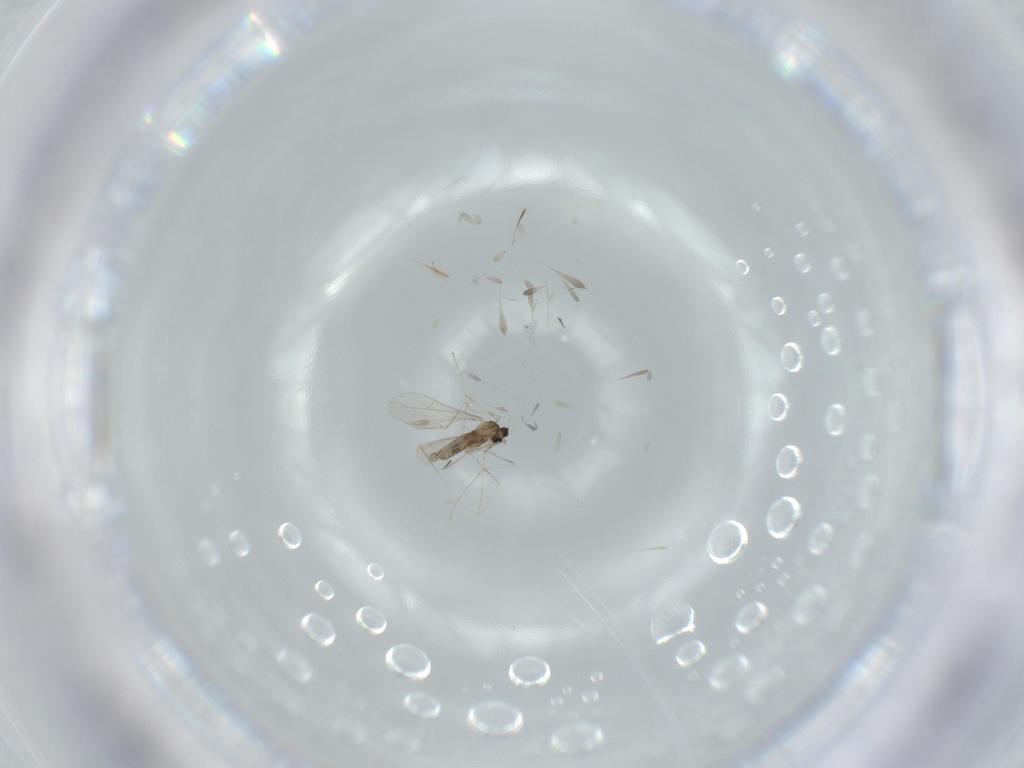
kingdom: Animalia
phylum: Arthropoda
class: Insecta
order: Diptera
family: Cecidomyiidae
